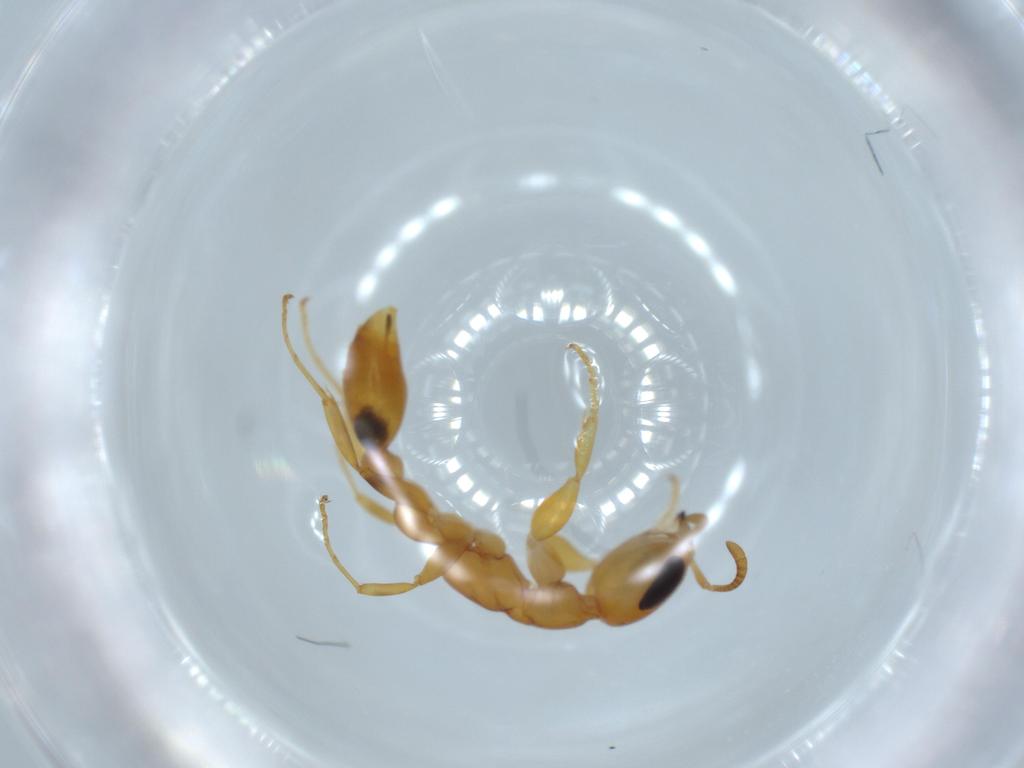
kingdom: Animalia
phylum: Arthropoda
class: Insecta
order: Hymenoptera
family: Formicidae
